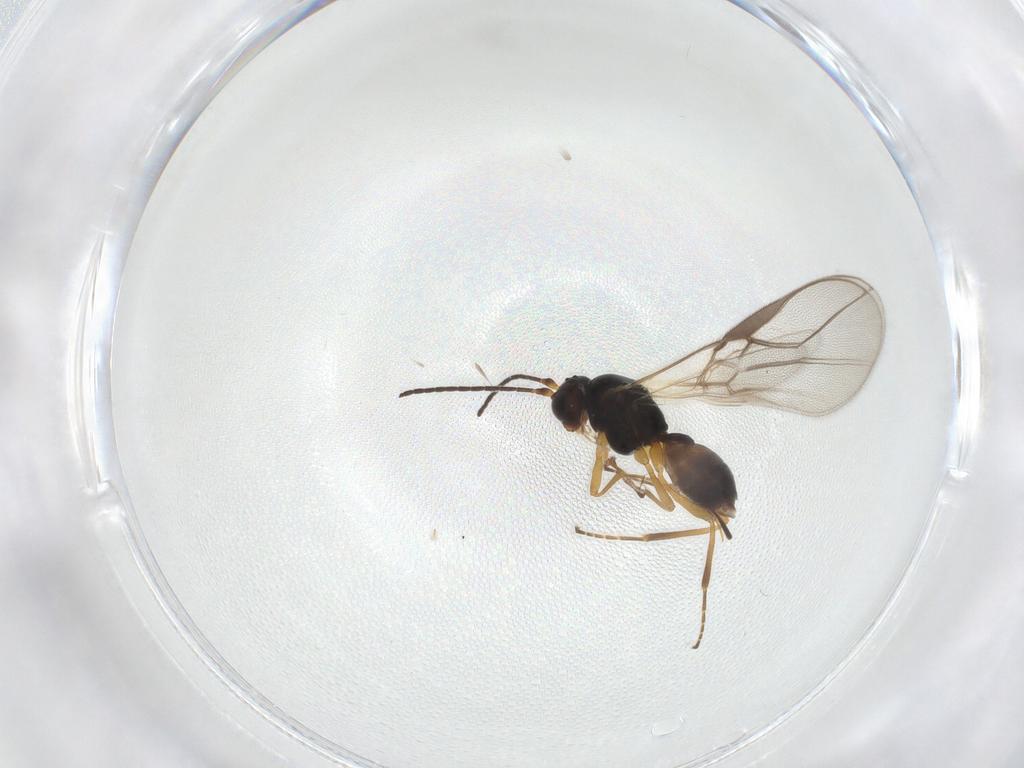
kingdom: Animalia
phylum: Arthropoda
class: Insecta
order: Hymenoptera
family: Braconidae
